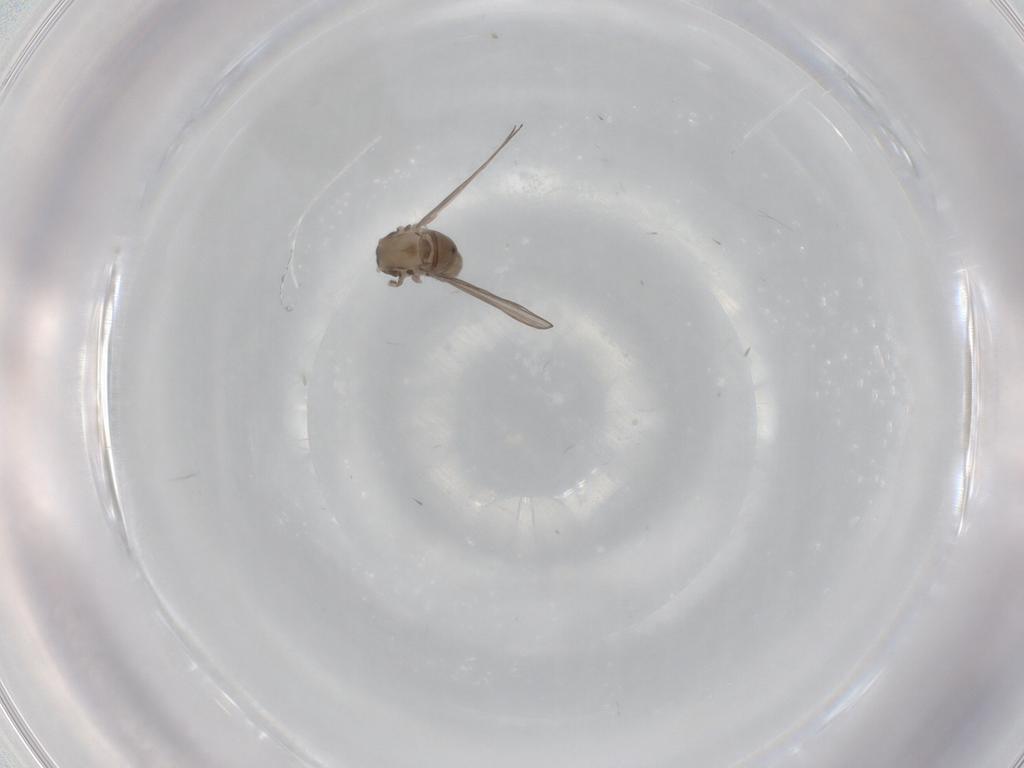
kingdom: Animalia
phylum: Arthropoda
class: Insecta
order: Diptera
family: Psychodidae
